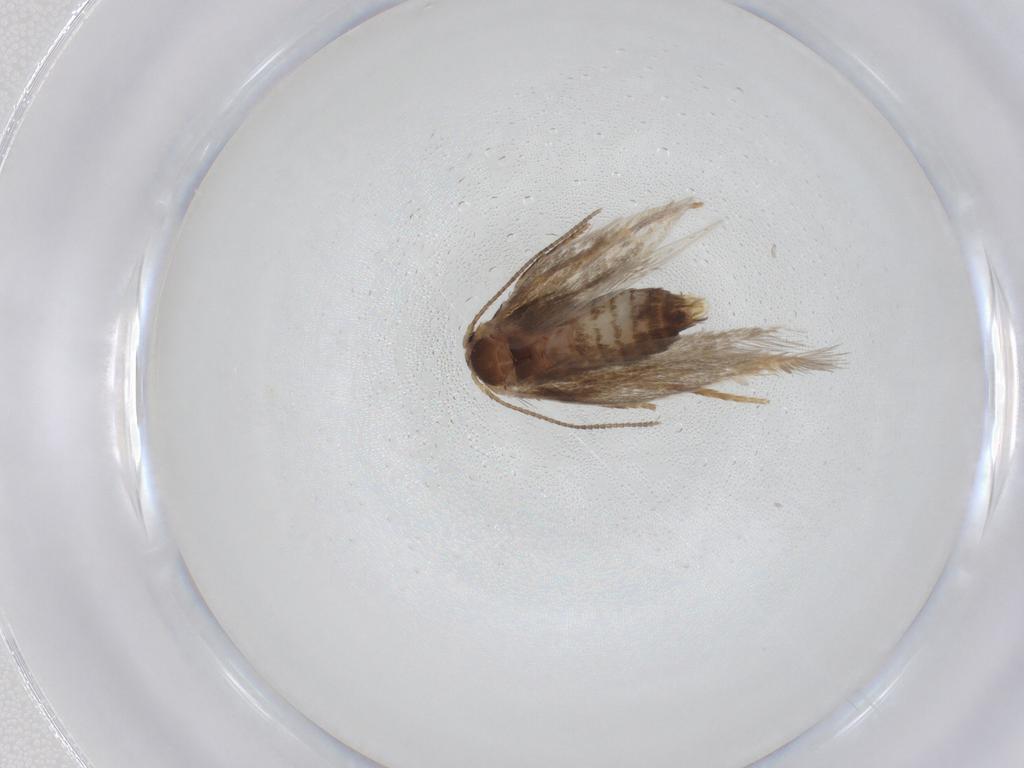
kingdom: Animalia
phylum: Arthropoda
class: Insecta
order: Lepidoptera
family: Nepticulidae
